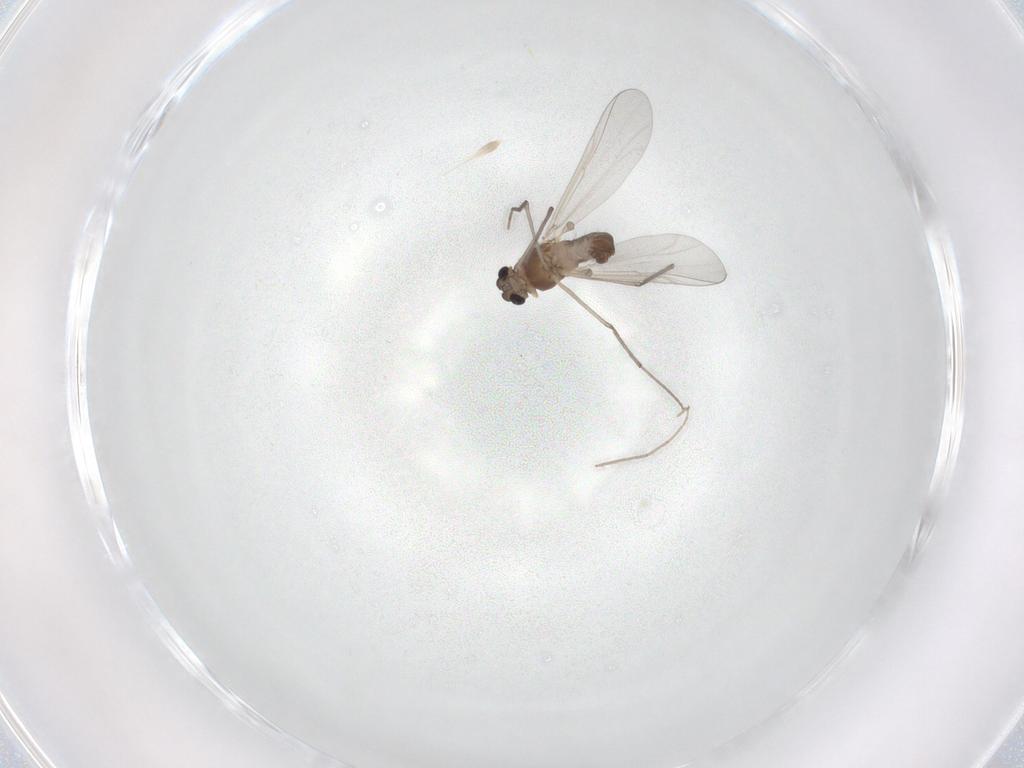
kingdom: Animalia
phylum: Arthropoda
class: Insecta
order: Diptera
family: Chironomidae
